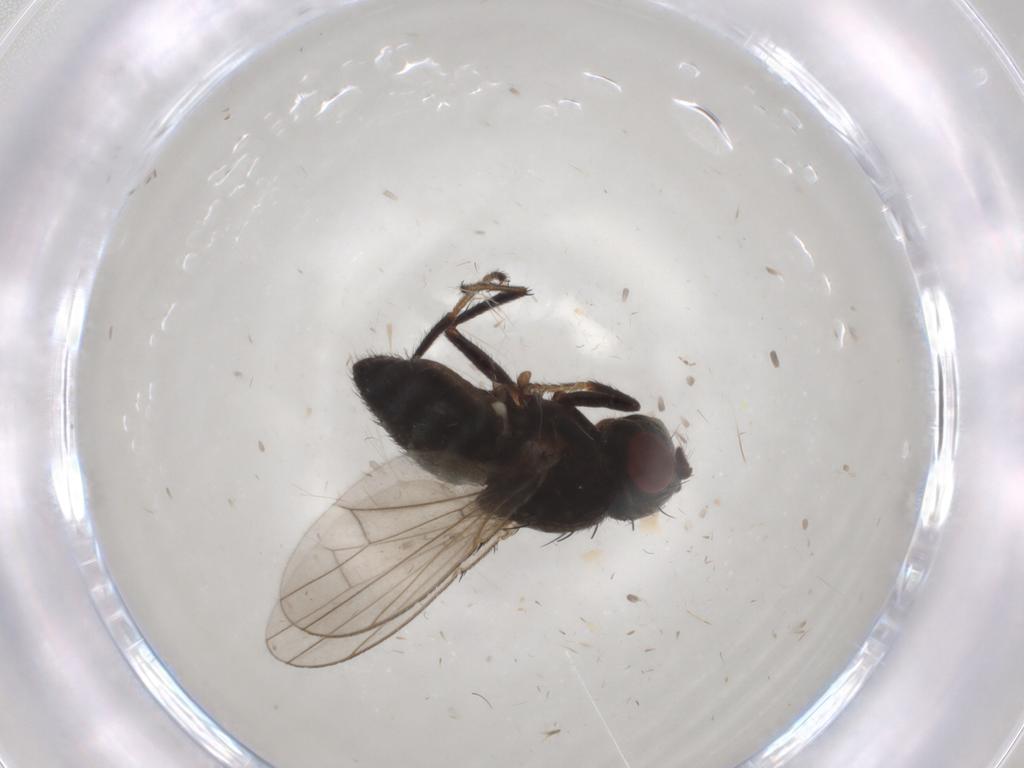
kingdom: Animalia
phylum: Arthropoda
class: Insecta
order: Diptera
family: Ephydridae
